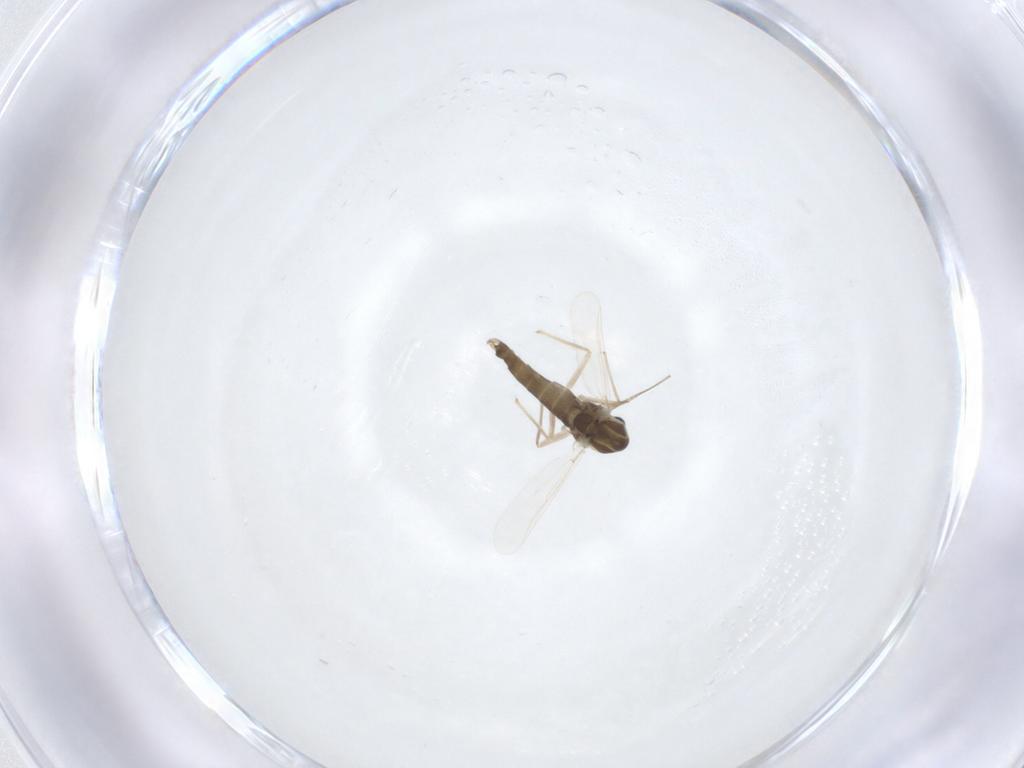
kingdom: Animalia
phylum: Arthropoda
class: Insecta
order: Diptera
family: Chironomidae
